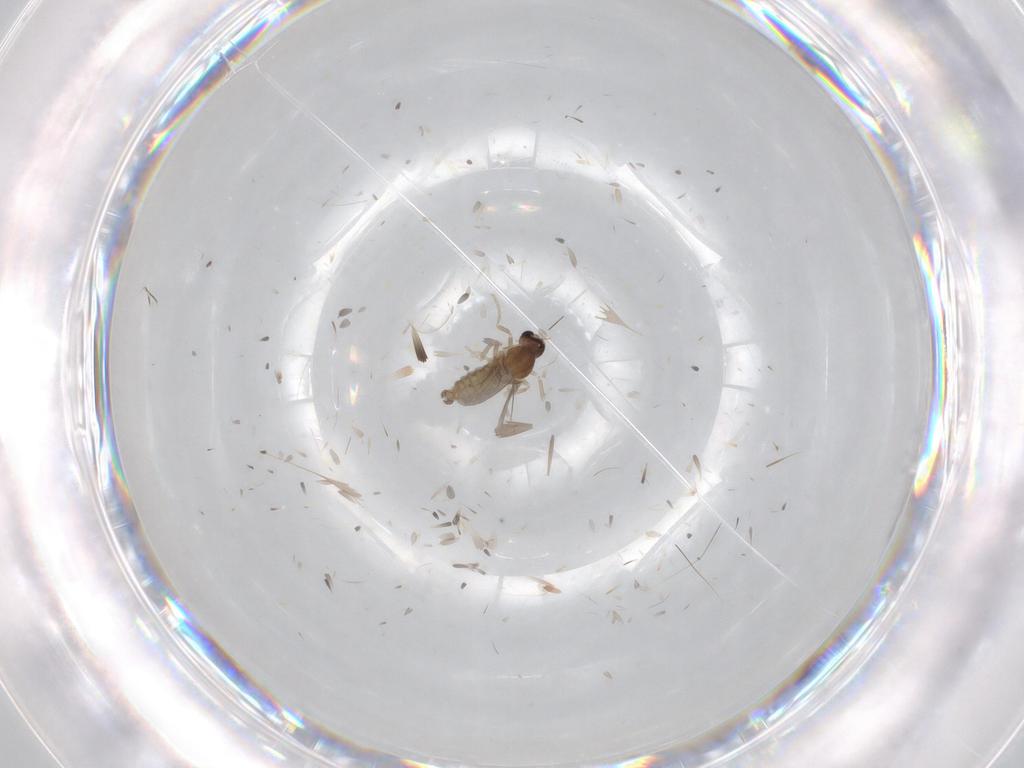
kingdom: Animalia
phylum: Arthropoda
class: Insecta
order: Diptera
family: Cecidomyiidae
